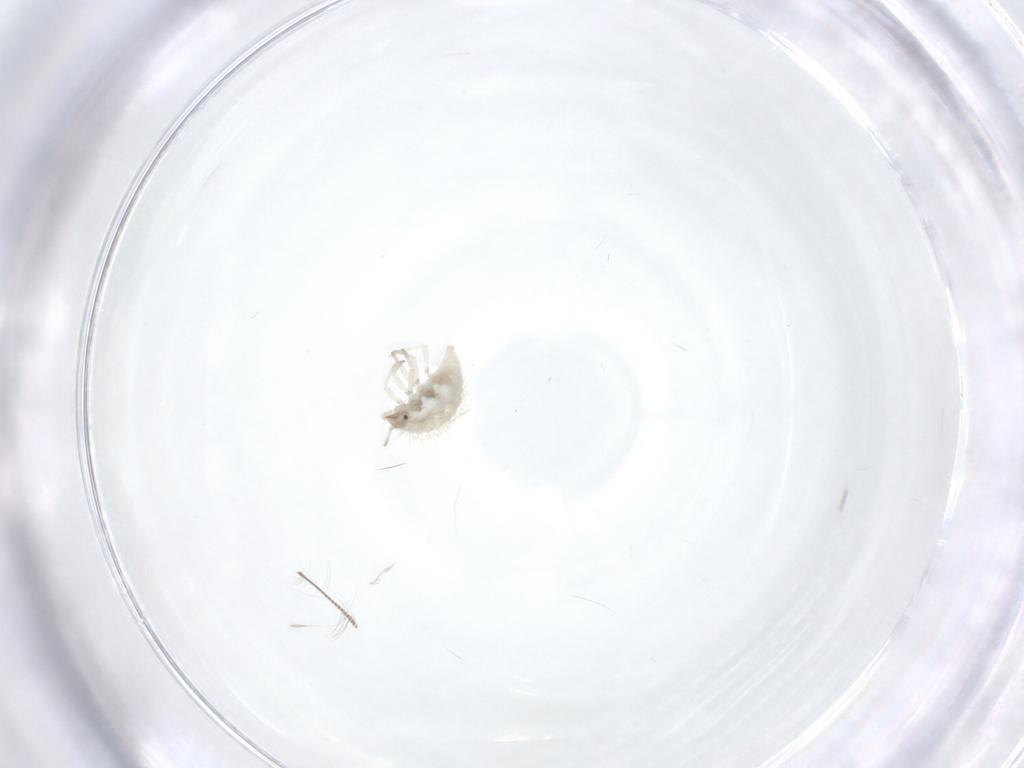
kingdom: Animalia
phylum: Arthropoda
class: Insecta
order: Neuroptera
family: Coniopterygidae
